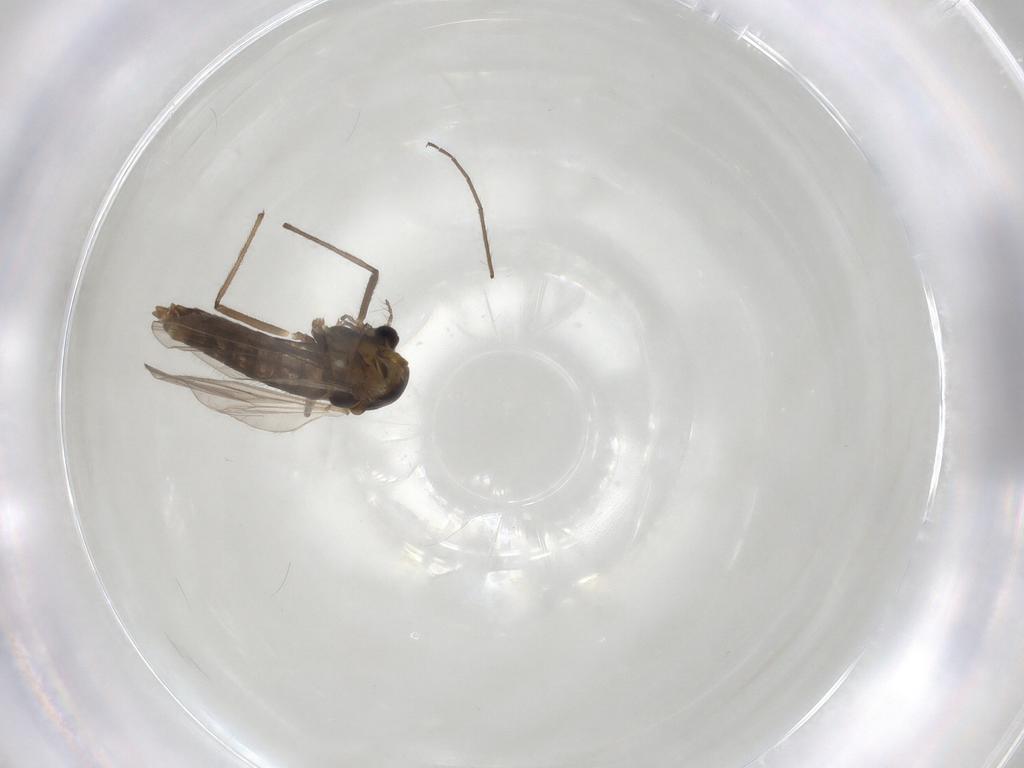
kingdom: Animalia
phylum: Arthropoda
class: Insecta
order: Diptera
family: Chironomidae
